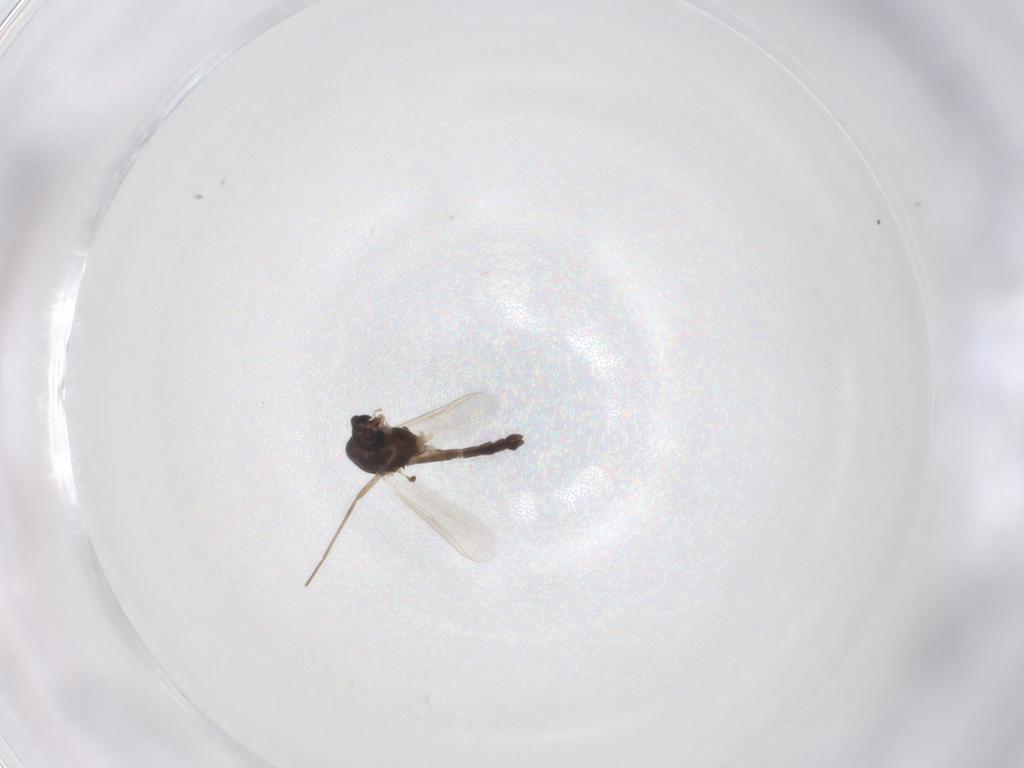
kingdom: Animalia
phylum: Arthropoda
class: Insecta
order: Diptera
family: Chironomidae
